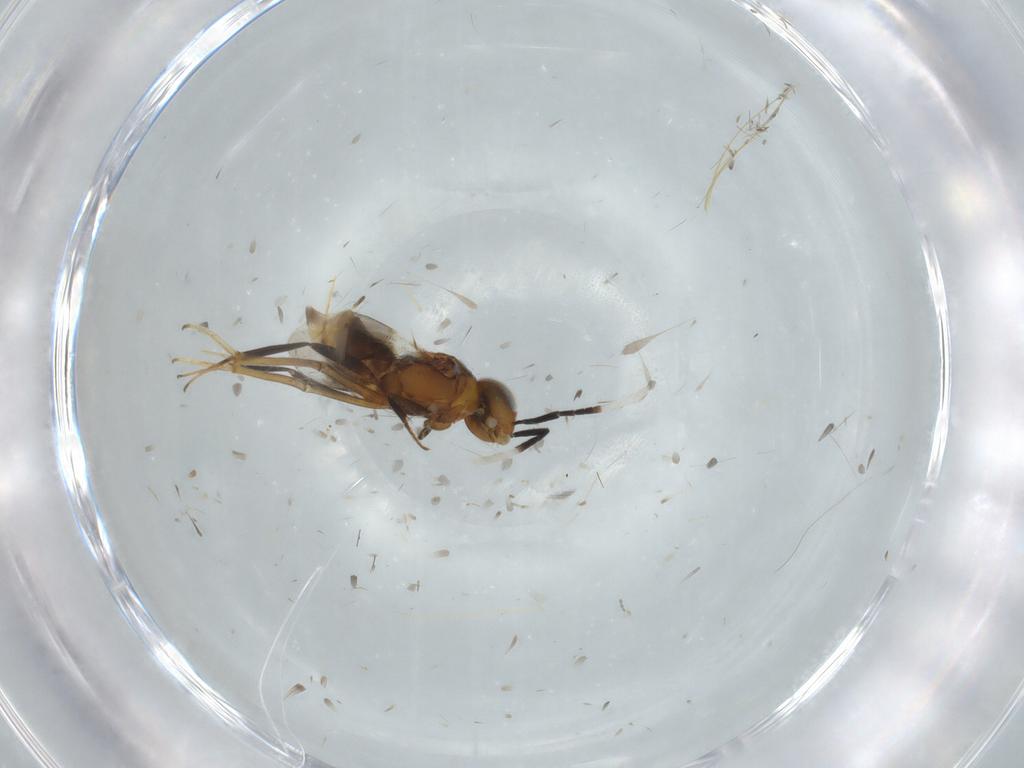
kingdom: Animalia
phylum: Arthropoda
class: Insecta
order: Hymenoptera
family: Encyrtidae
